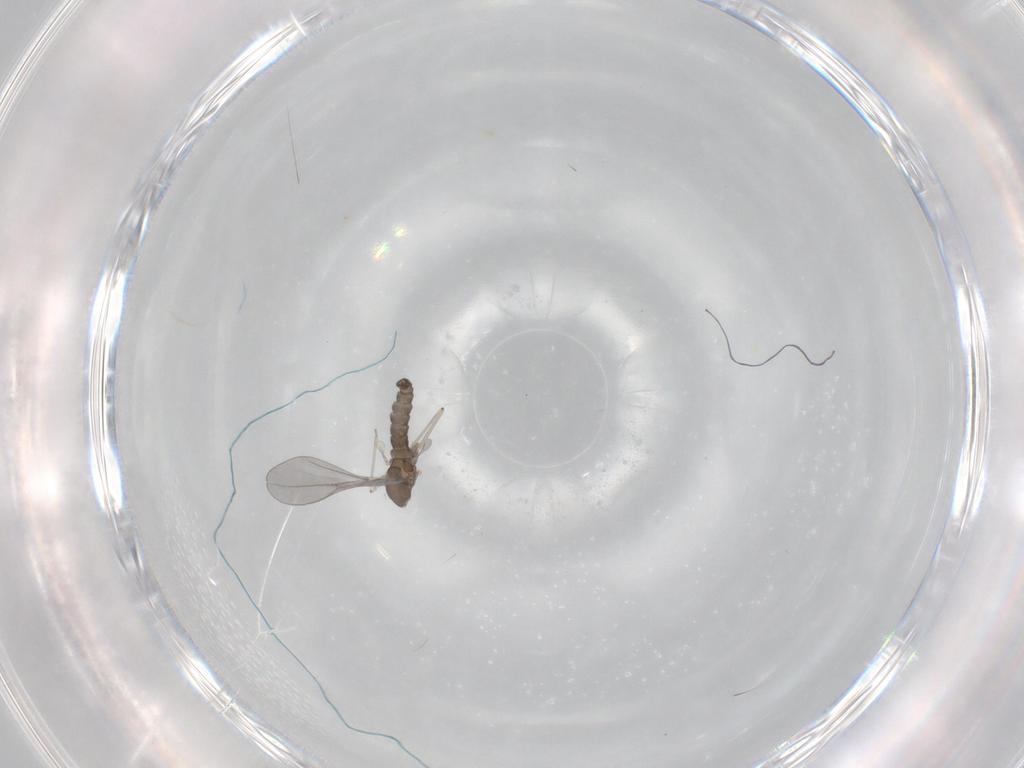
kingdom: Animalia
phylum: Arthropoda
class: Insecta
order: Diptera
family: Cecidomyiidae
